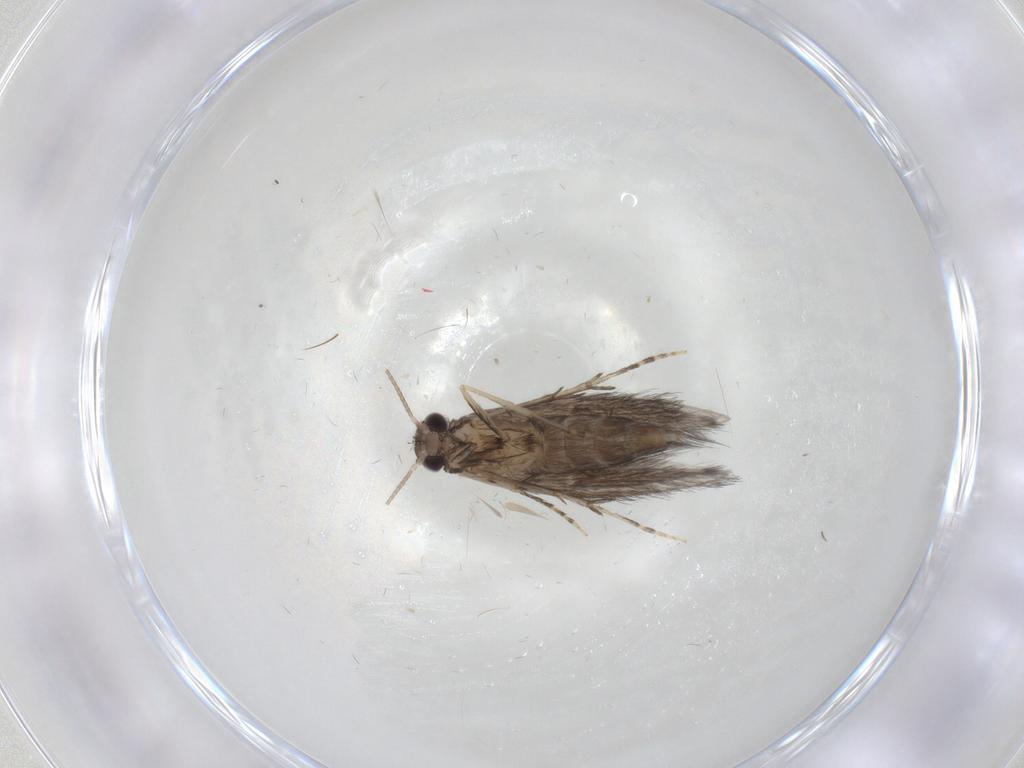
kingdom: Animalia
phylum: Arthropoda
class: Insecta
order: Trichoptera
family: Hydroptilidae
